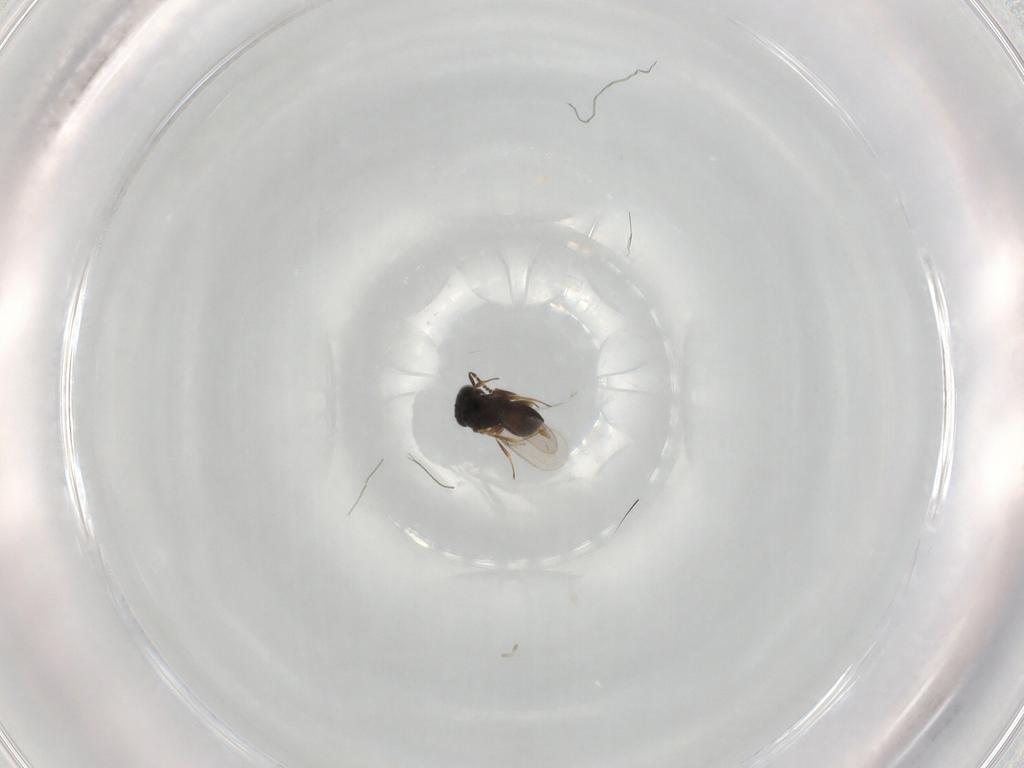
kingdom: Animalia
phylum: Arthropoda
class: Insecta
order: Hymenoptera
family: Scelionidae
